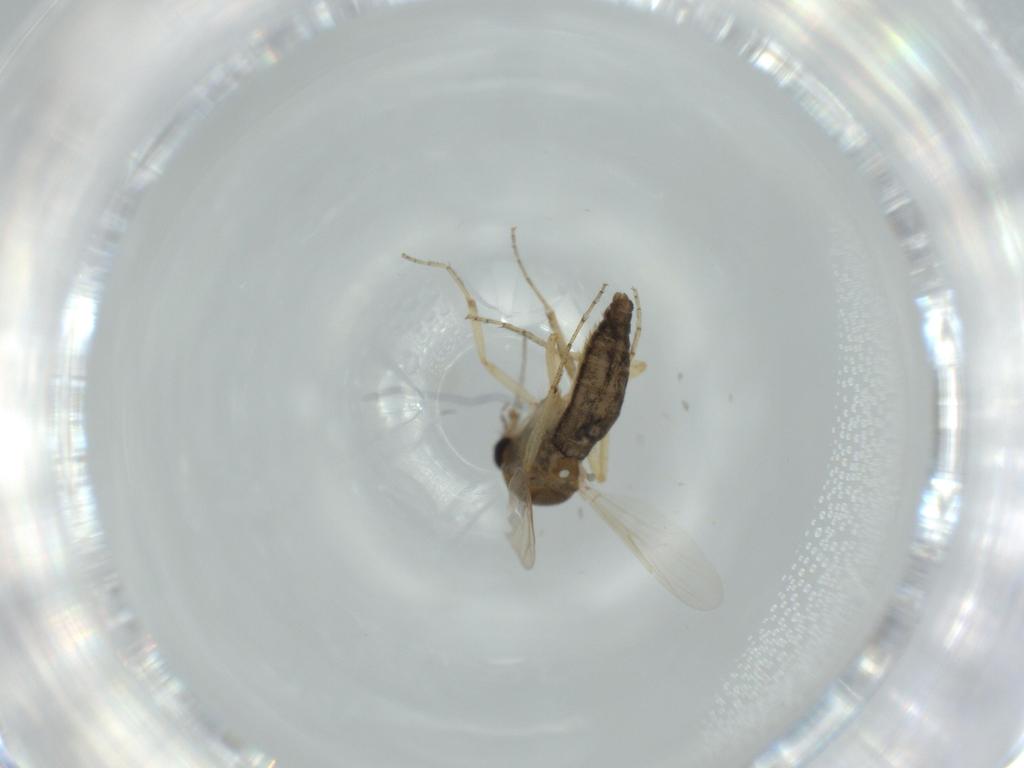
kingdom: Animalia
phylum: Arthropoda
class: Insecta
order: Diptera
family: Ceratopogonidae
